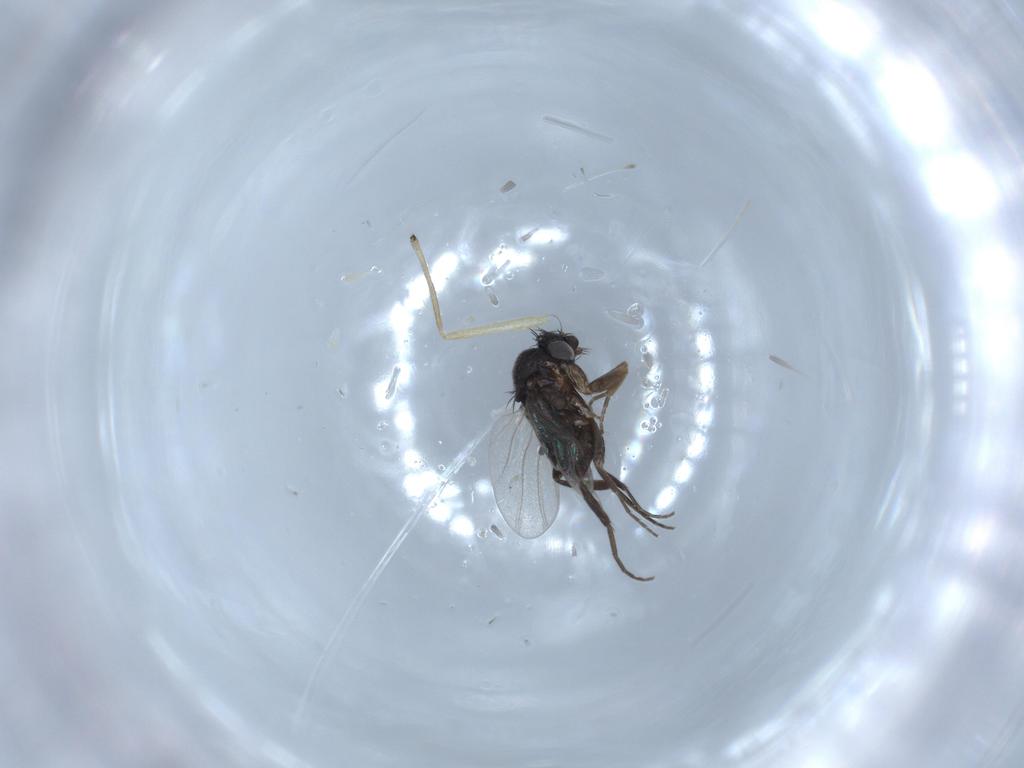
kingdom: Animalia
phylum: Arthropoda
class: Insecta
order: Diptera
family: Phoridae
